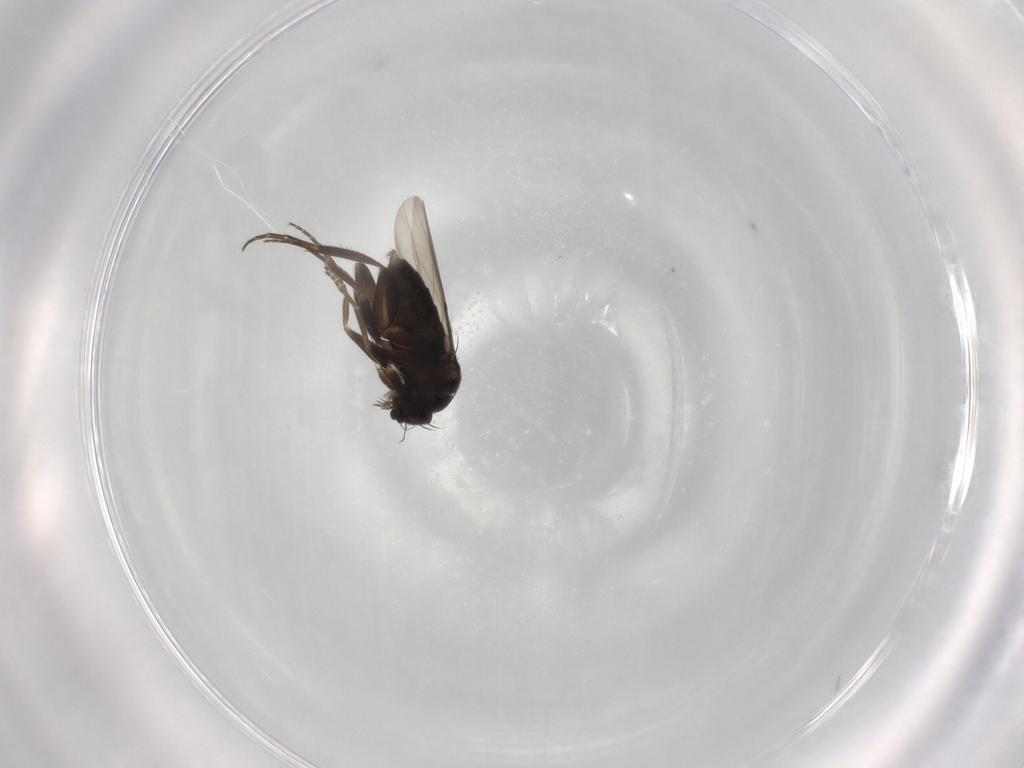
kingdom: Animalia
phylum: Arthropoda
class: Insecta
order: Diptera
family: Phoridae
